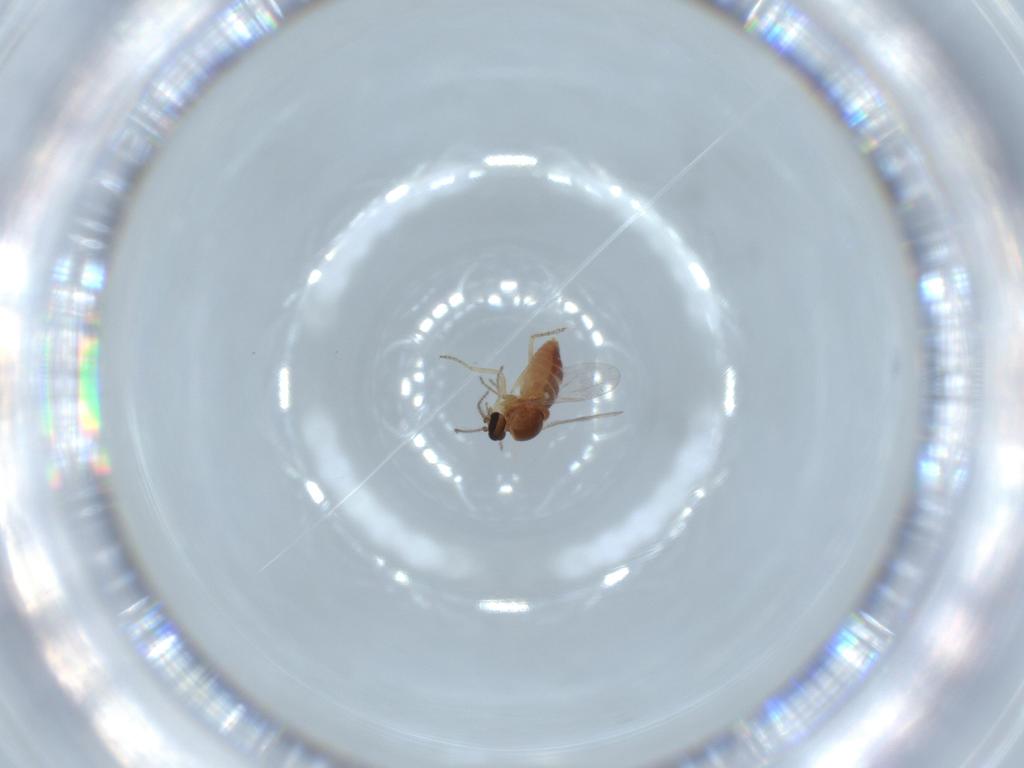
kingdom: Animalia
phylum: Arthropoda
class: Insecta
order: Diptera
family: Ceratopogonidae
